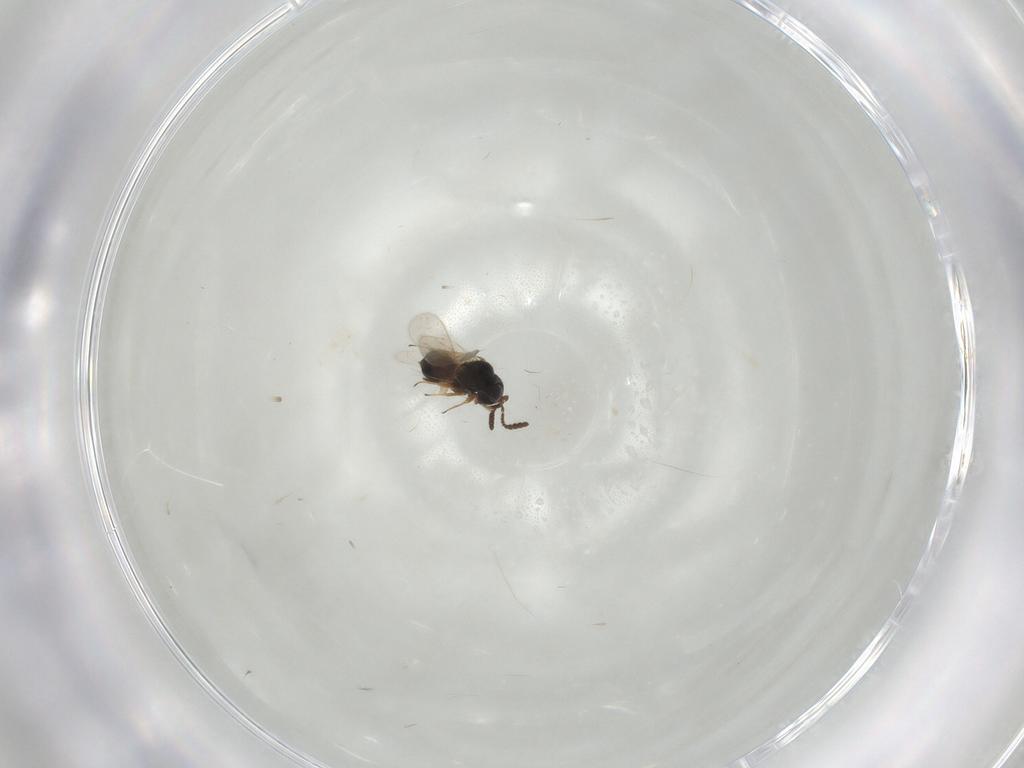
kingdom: Animalia
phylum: Arthropoda
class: Insecta
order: Hymenoptera
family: Scelionidae
